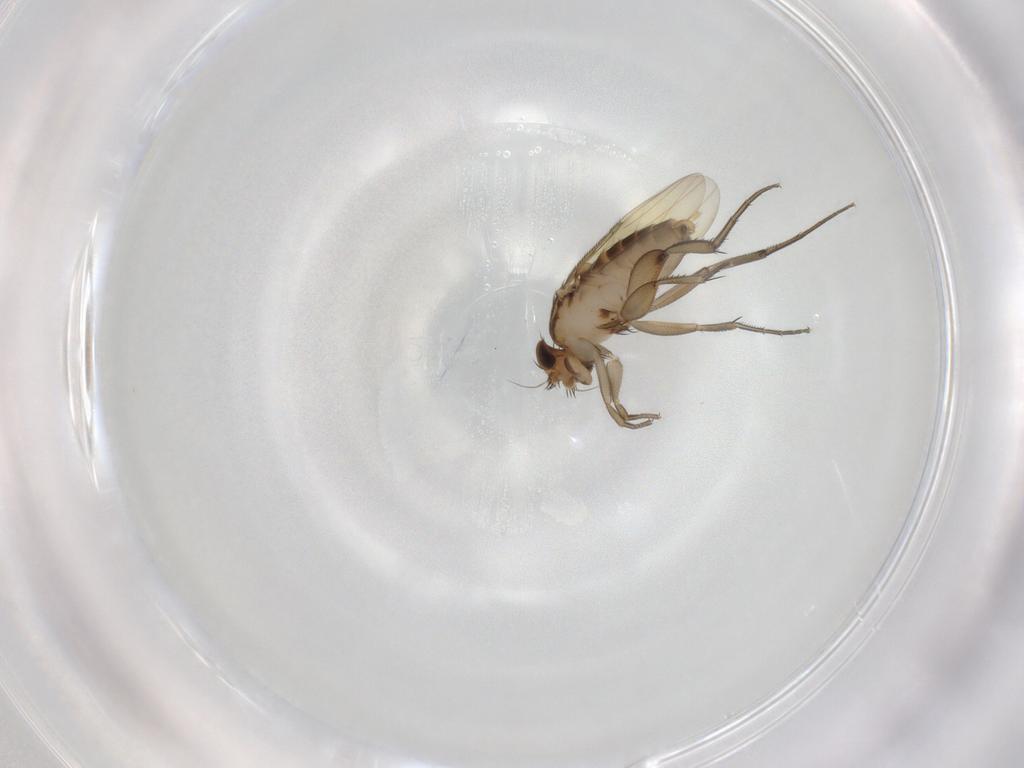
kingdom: Animalia
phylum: Arthropoda
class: Insecta
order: Diptera
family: Phoridae
